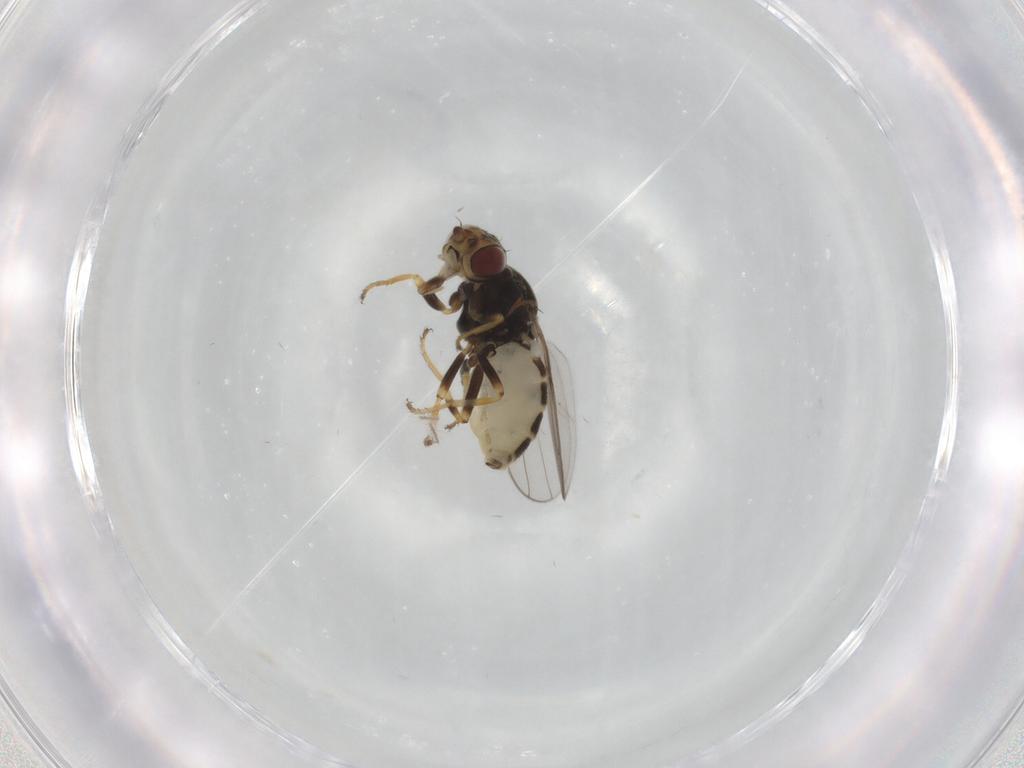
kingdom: Animalia
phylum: Arthropoda
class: Insecta
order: Diptera
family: Chloropidae
